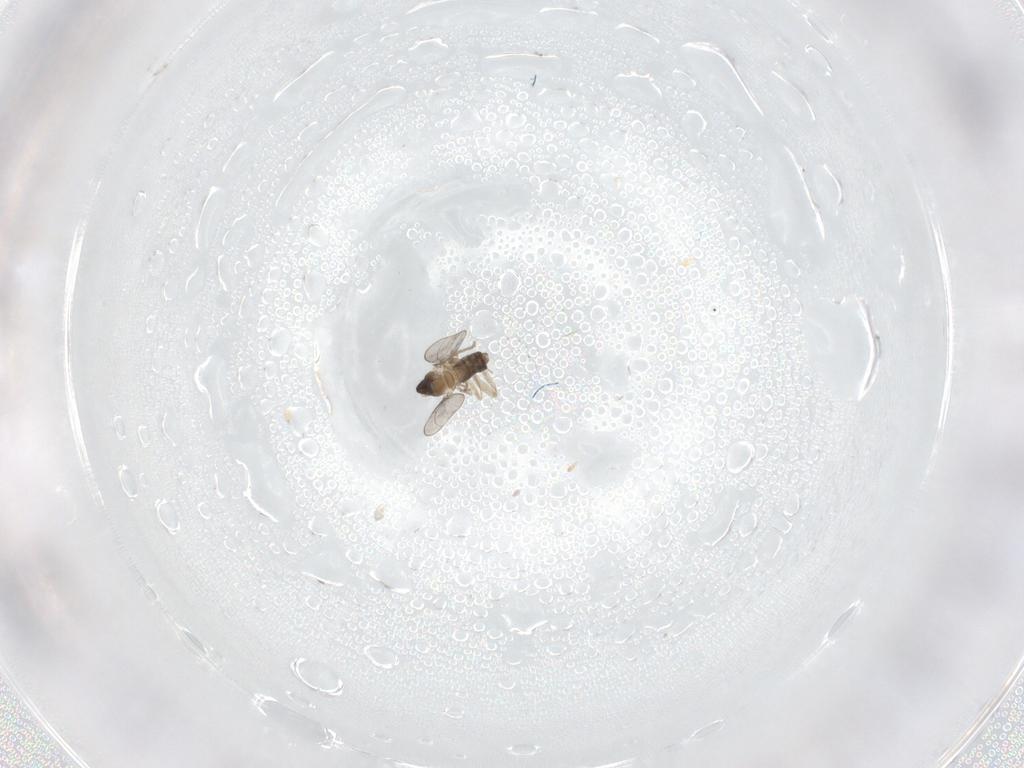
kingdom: Animalia
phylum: Arthropoda
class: Insecta
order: Diptera
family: Cecidomyiidae
